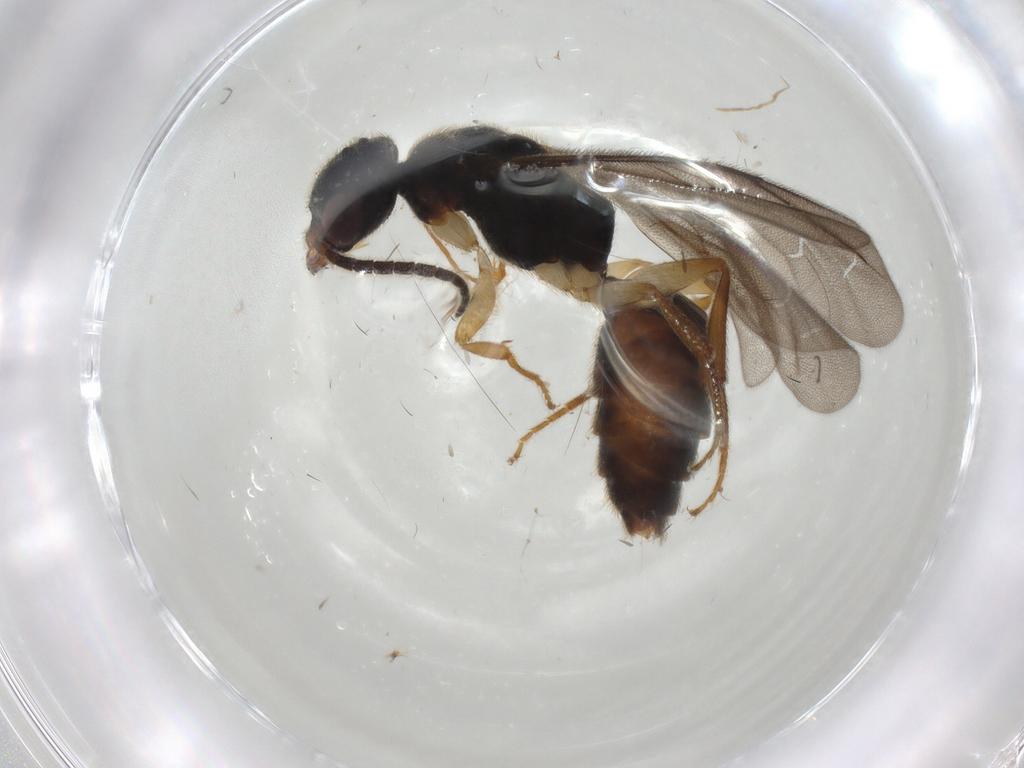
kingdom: Animalia
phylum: Arthropoda
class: Insecta
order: Hymenoptera
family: Bethylidae
